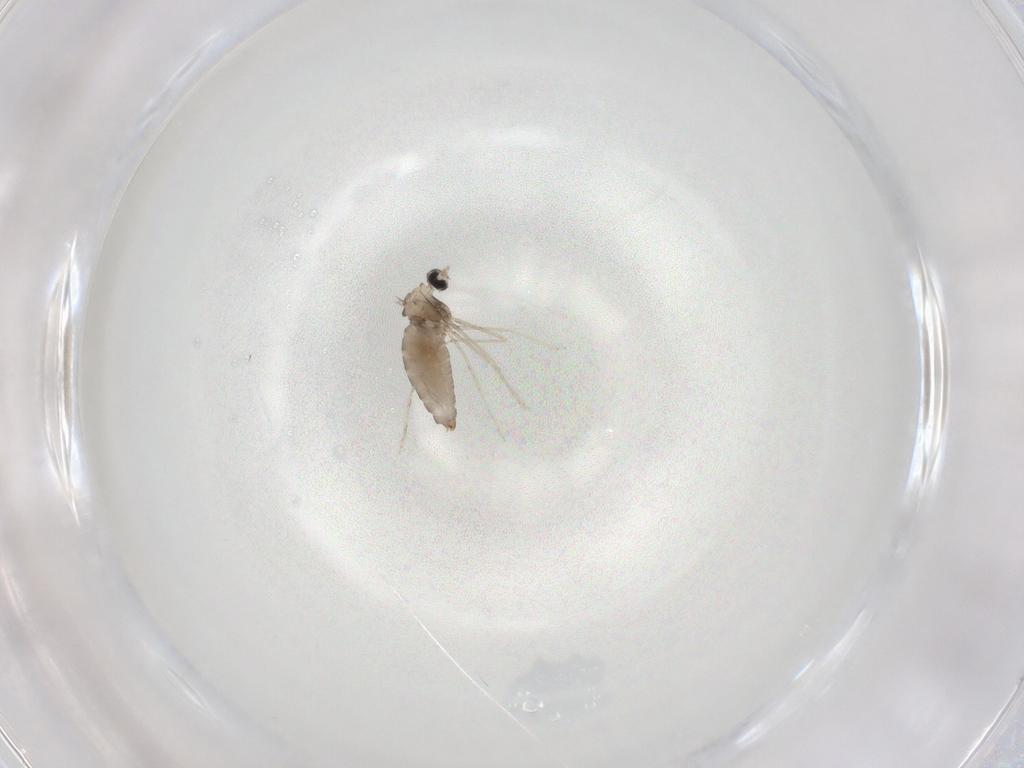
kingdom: Animalia
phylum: Arthropoda
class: Insecta
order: Diptera
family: Cecidomyiidae
